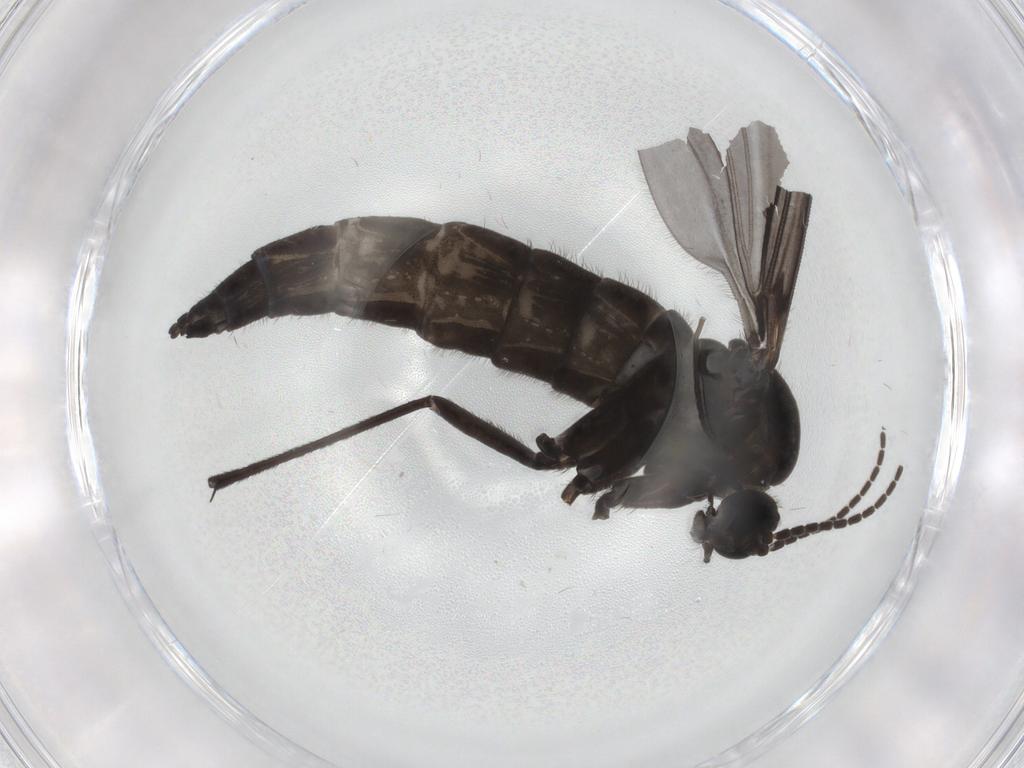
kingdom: Animalia
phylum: Arthropoda
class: Insecta
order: Diptera
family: Sciaridae
